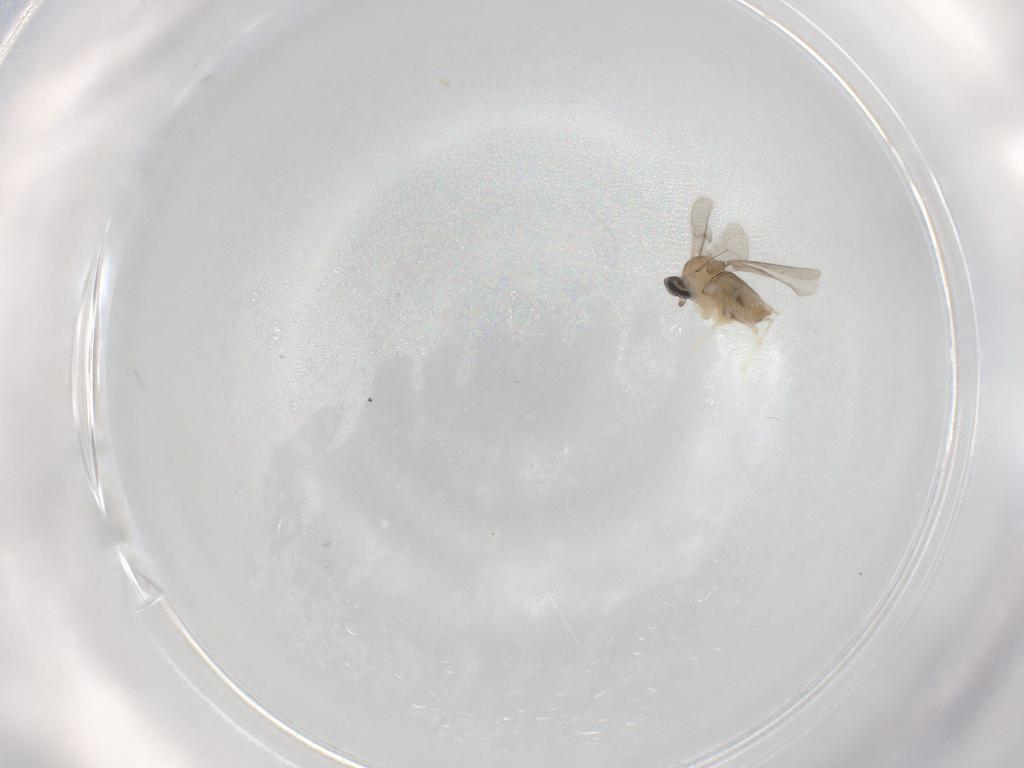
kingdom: Animalia
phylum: Arthropoda
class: Insecta
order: Diptera
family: Cecidomyiidae
